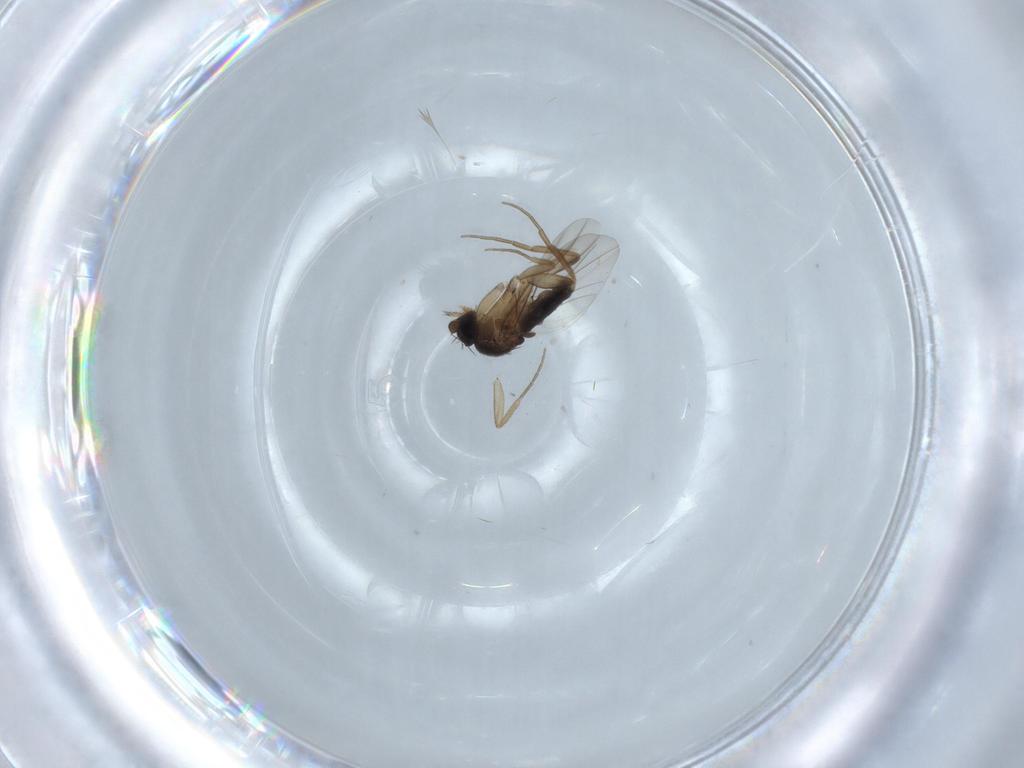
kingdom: Animalia
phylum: Arthropoda
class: Insecta
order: Diptera
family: Phoridae
